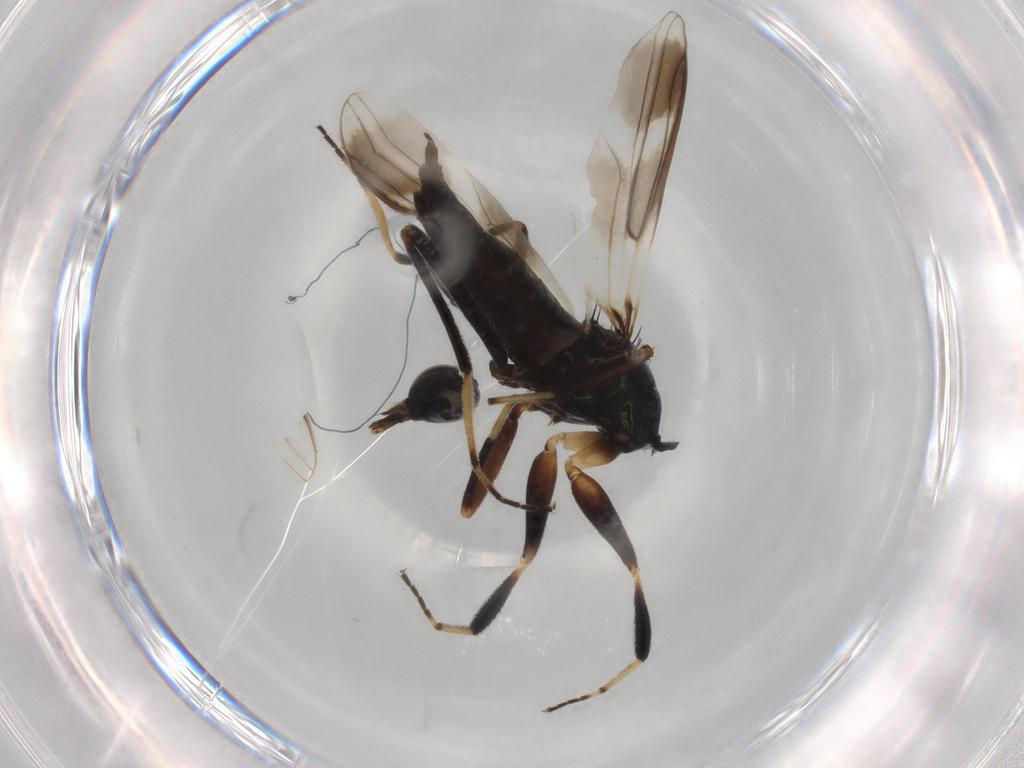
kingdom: Animalia
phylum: Arthropoda
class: Insecta
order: Diptera
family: Hybotidae
